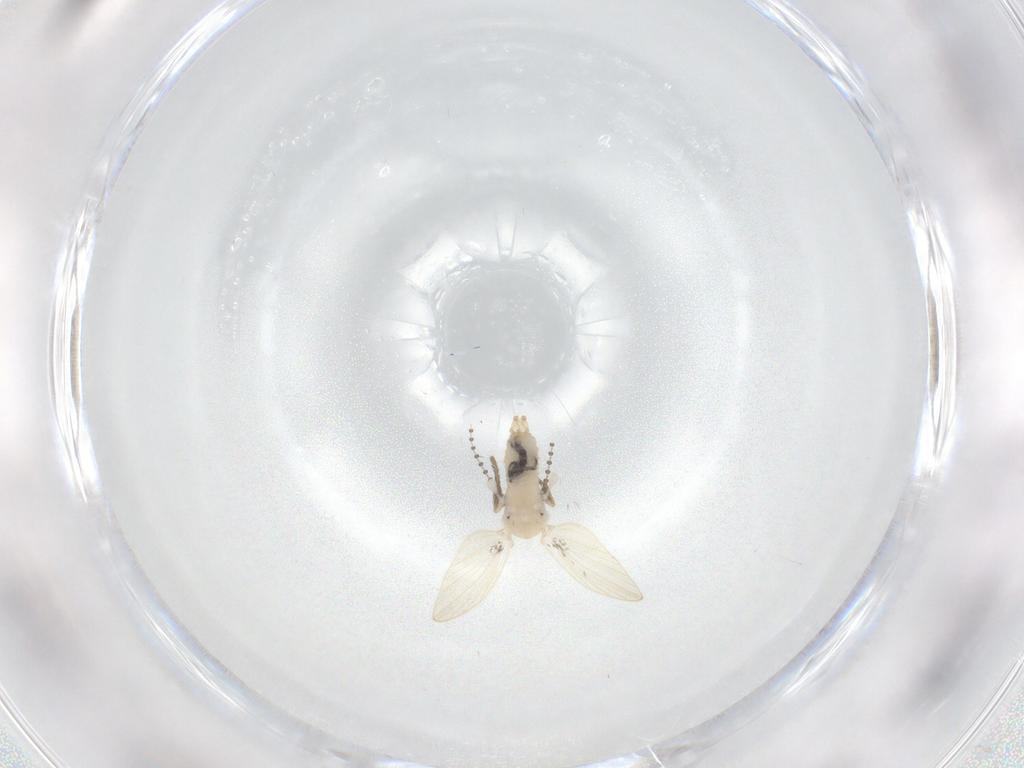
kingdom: Animalia
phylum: Arthropoda
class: Insecta
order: Diptera
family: Psychodidae
